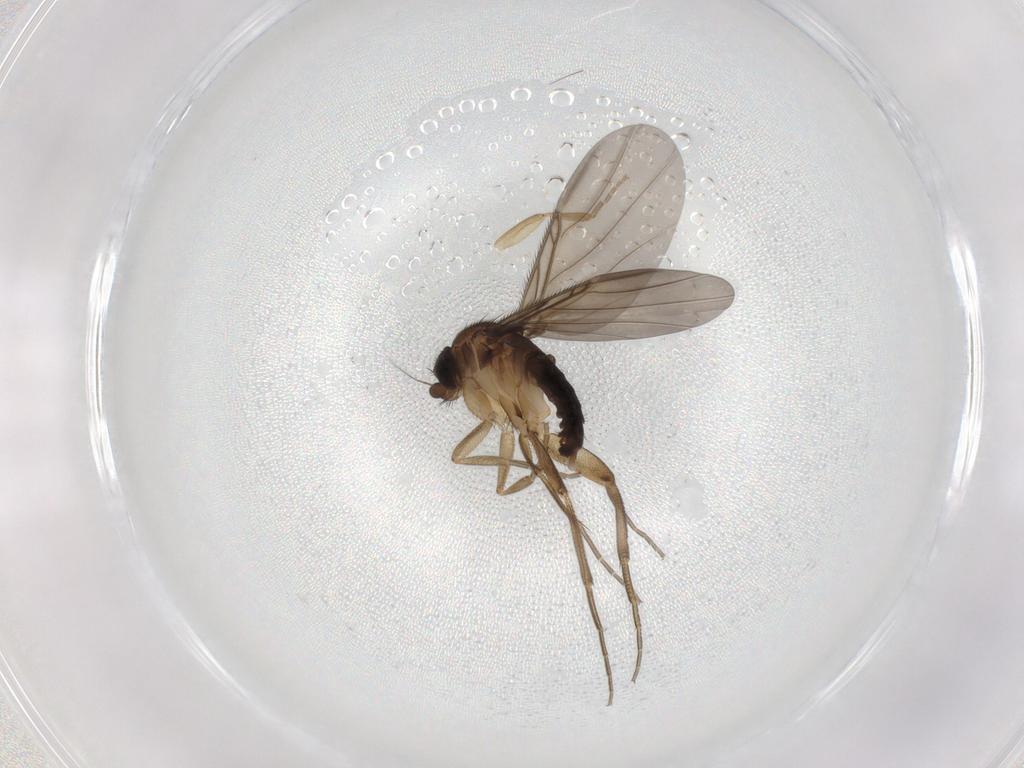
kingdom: Animalia
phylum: Arthropoda
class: Insecta
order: Diptera
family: Phoridae
